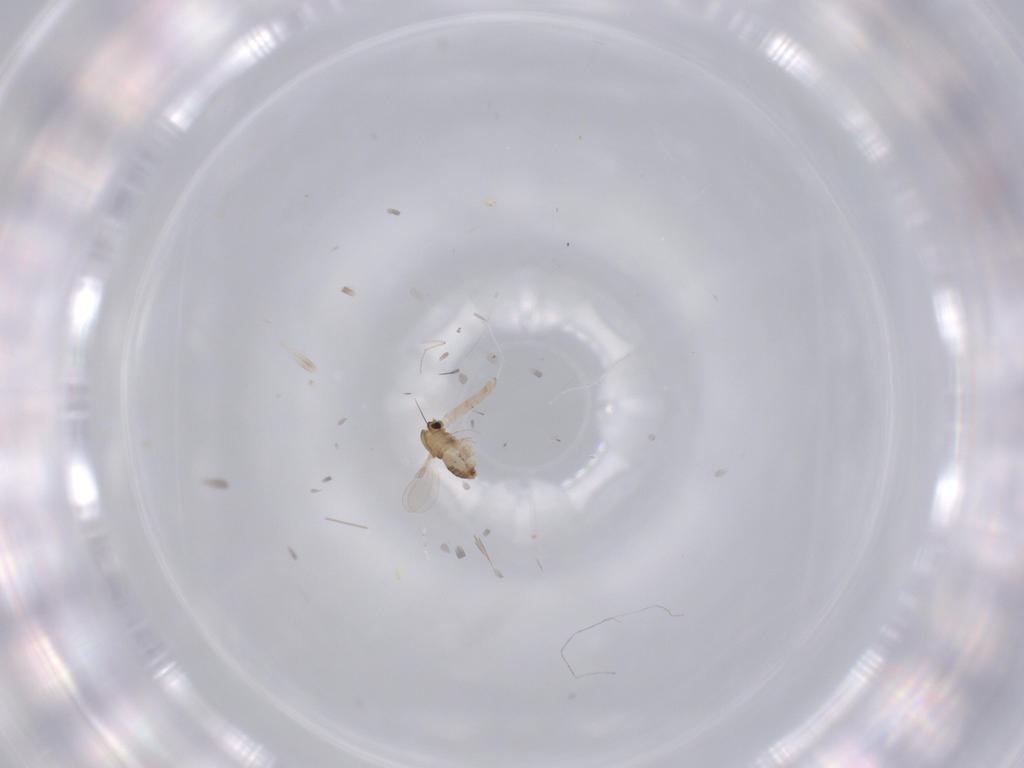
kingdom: Animalia
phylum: Arthropoda
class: Insecta
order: Diptera
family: Chironomidae
